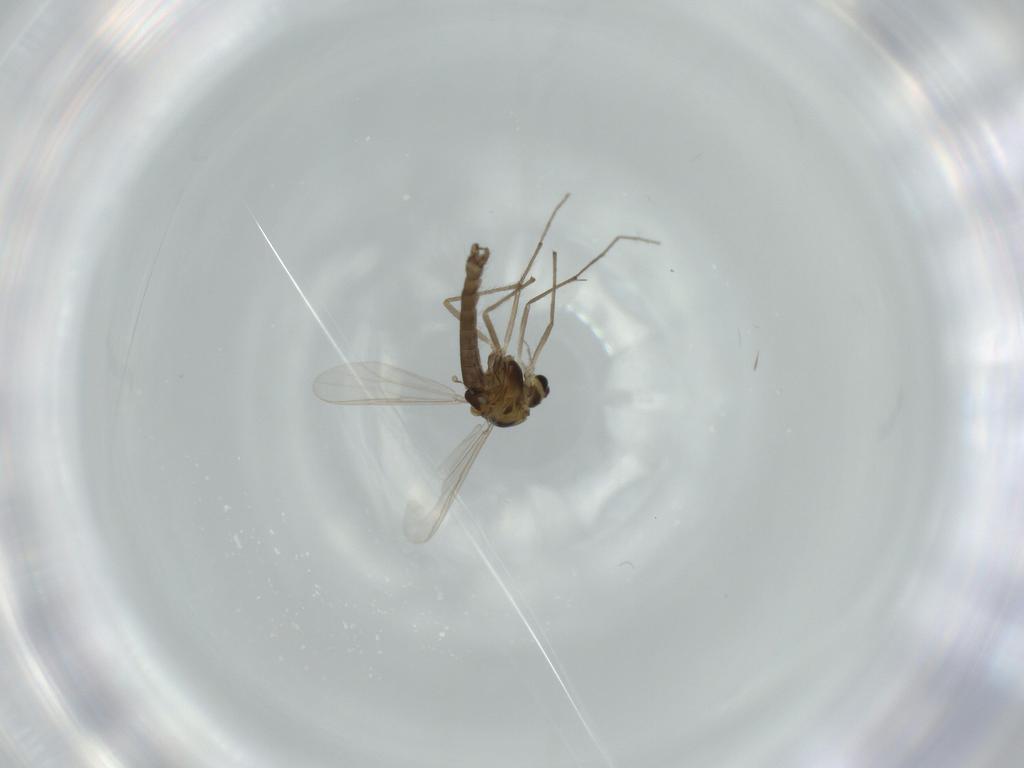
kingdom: Animalia
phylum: Arthropoda
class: Insecta
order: Diptera
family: Chironomidae
